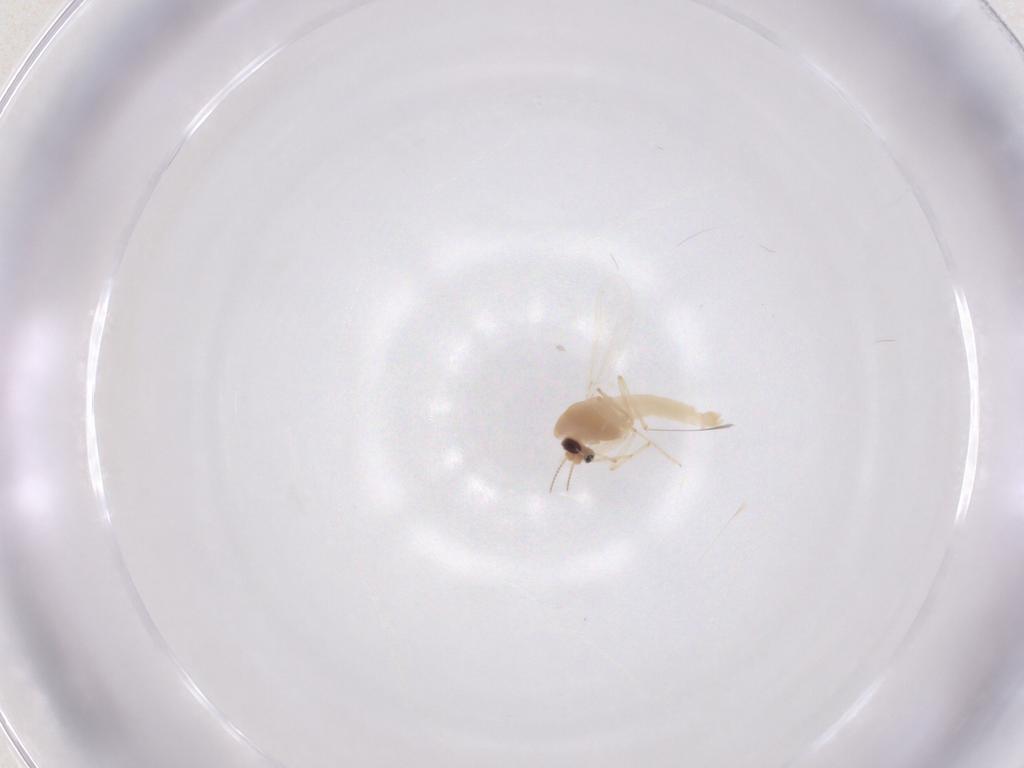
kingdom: Animalia
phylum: Arthropoda
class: Insecta
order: Diptera
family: Chironomidae
